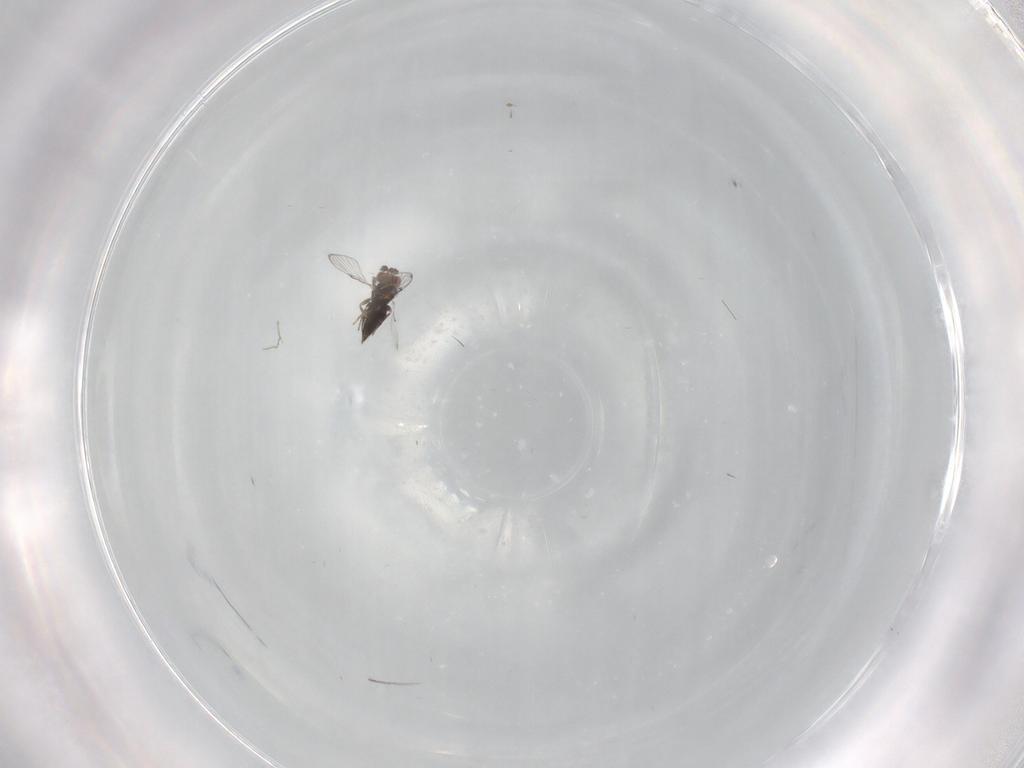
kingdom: Animalia
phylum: Arthropoda
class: Insecta
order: Hymenoptera
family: Trichogrammatidae
